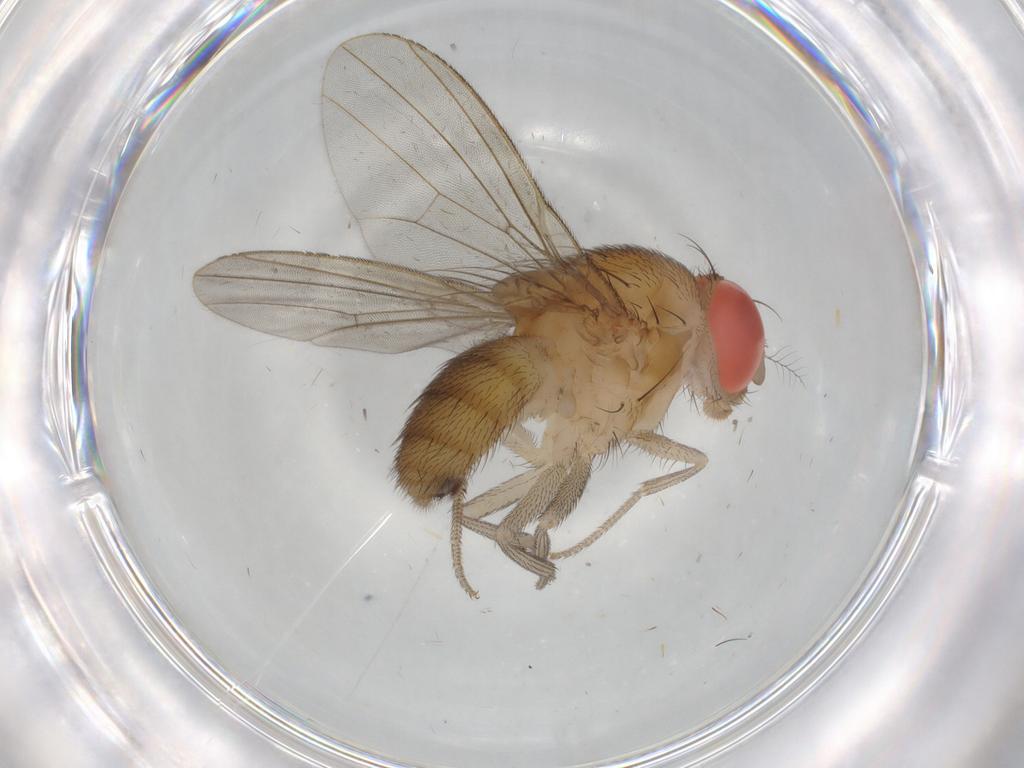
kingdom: Animalia
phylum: Arthropoda
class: Insecta
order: Diptera
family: Drosophilidae
